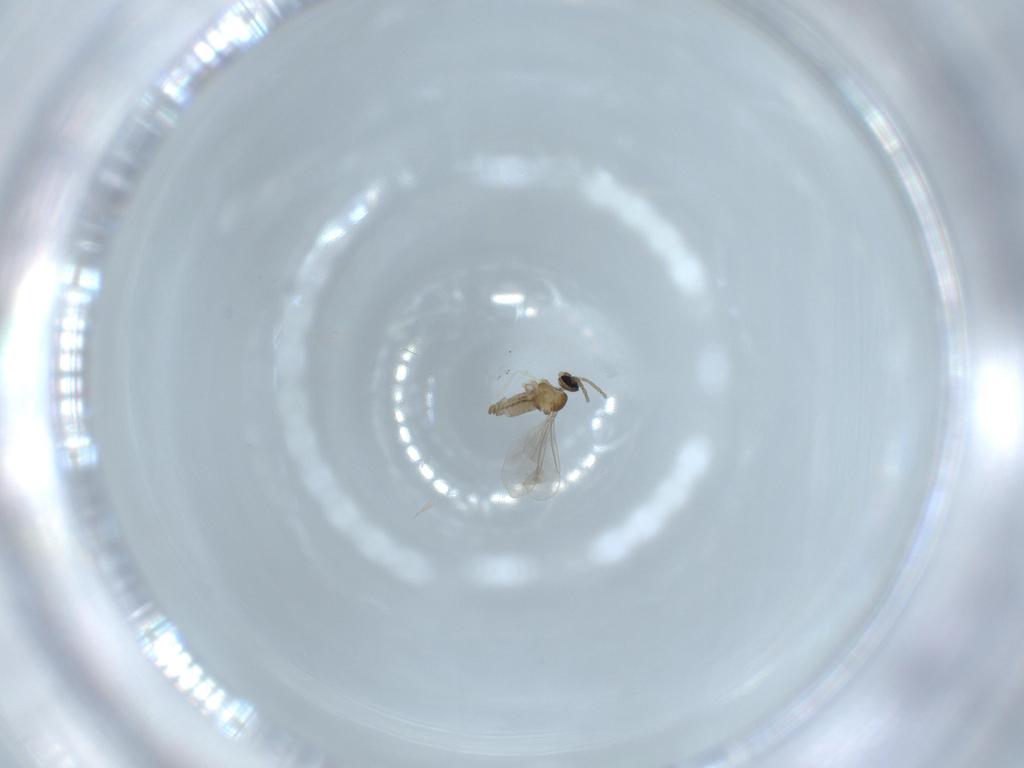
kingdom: Animalia
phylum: Arthropoda
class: Insecta
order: Diptera
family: Cecidomyiidae
